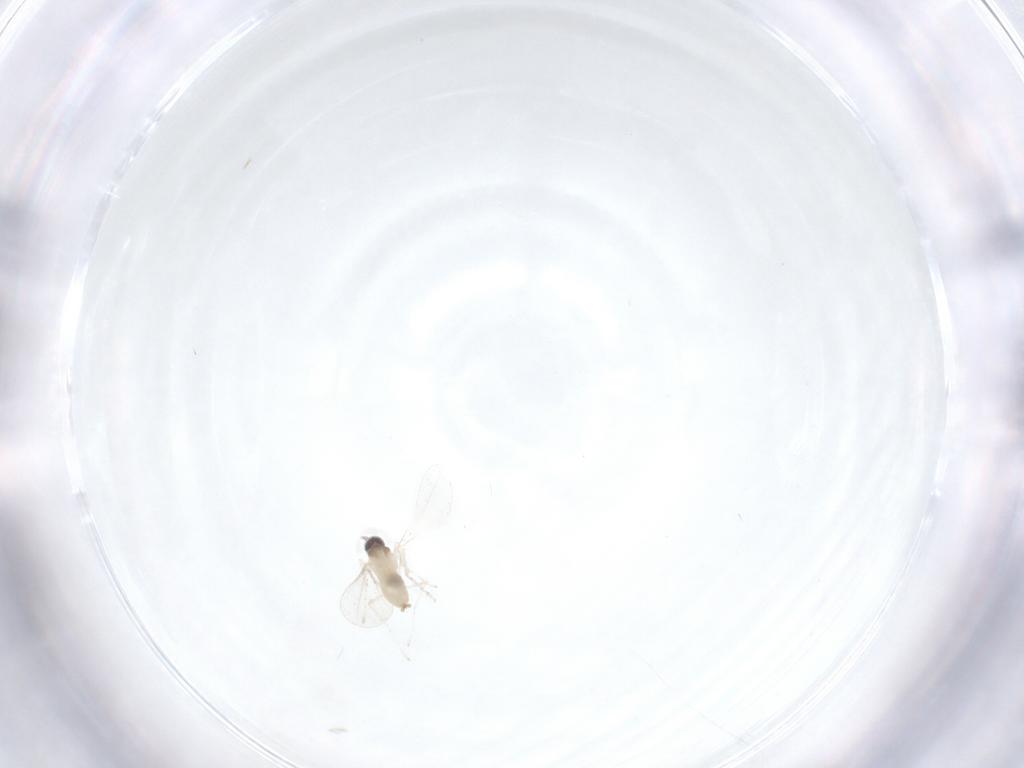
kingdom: Animalia
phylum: Arthropoda
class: Insecta
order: Diptera
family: Cecidomyiidae
